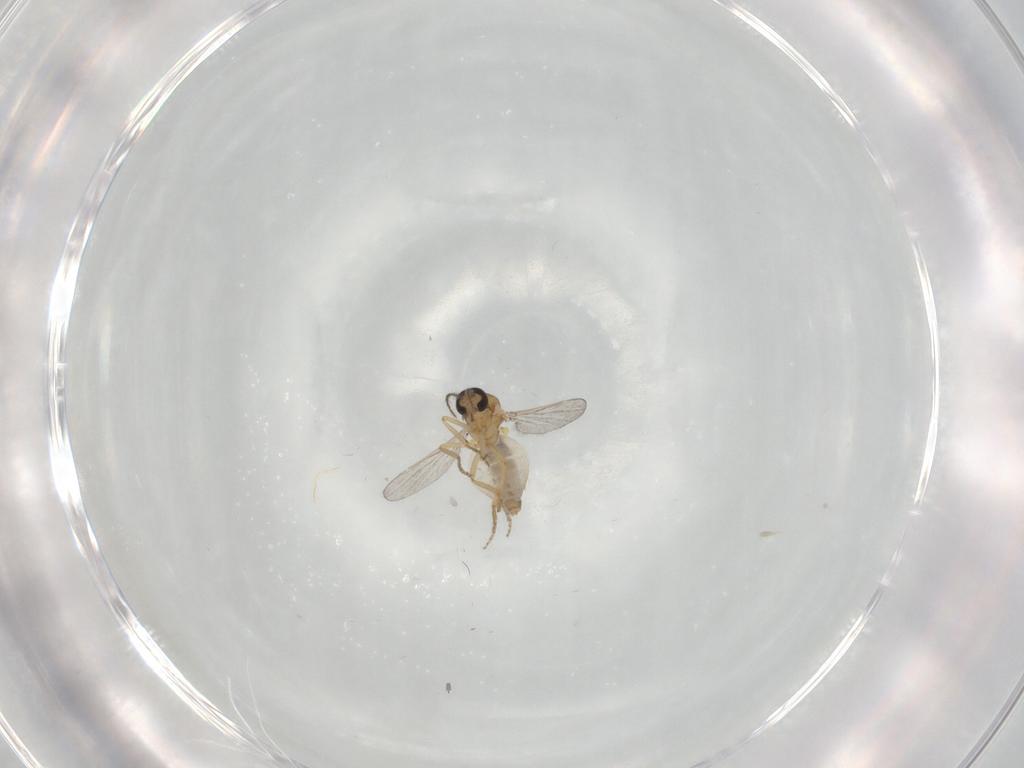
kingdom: Animalia
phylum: Arthropoda
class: Insecta
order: Diptera
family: Ceratopogonidae
